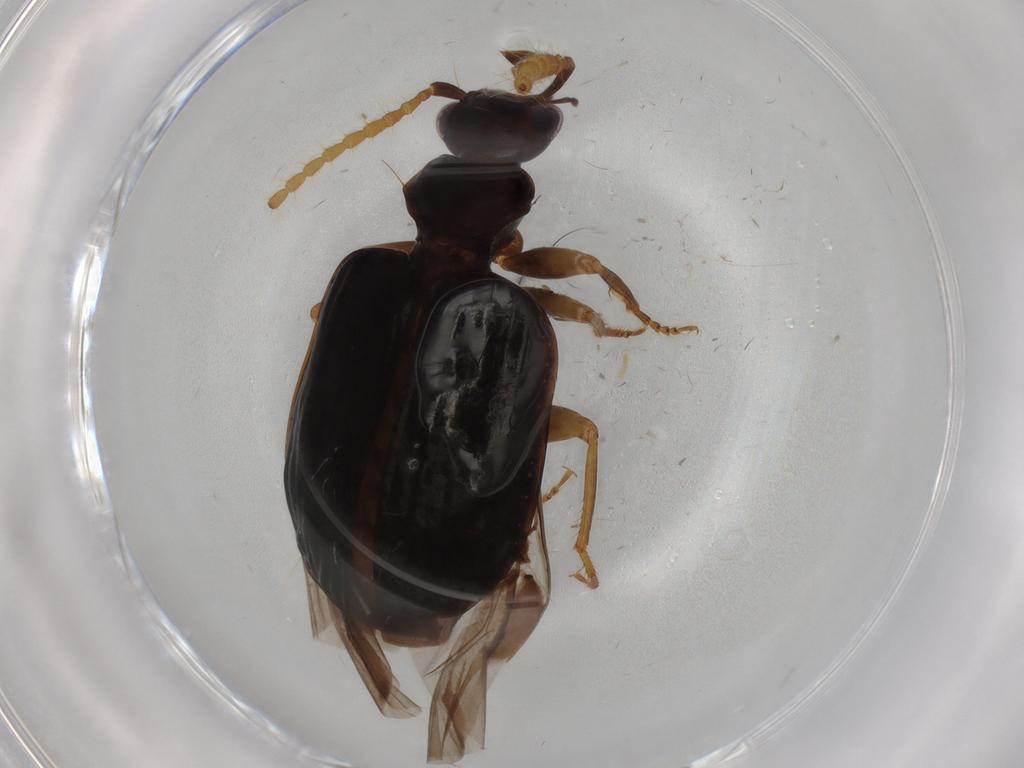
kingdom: Animalia
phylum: Arthropoda
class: Insecta
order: Coleoptera
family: Carabidae
